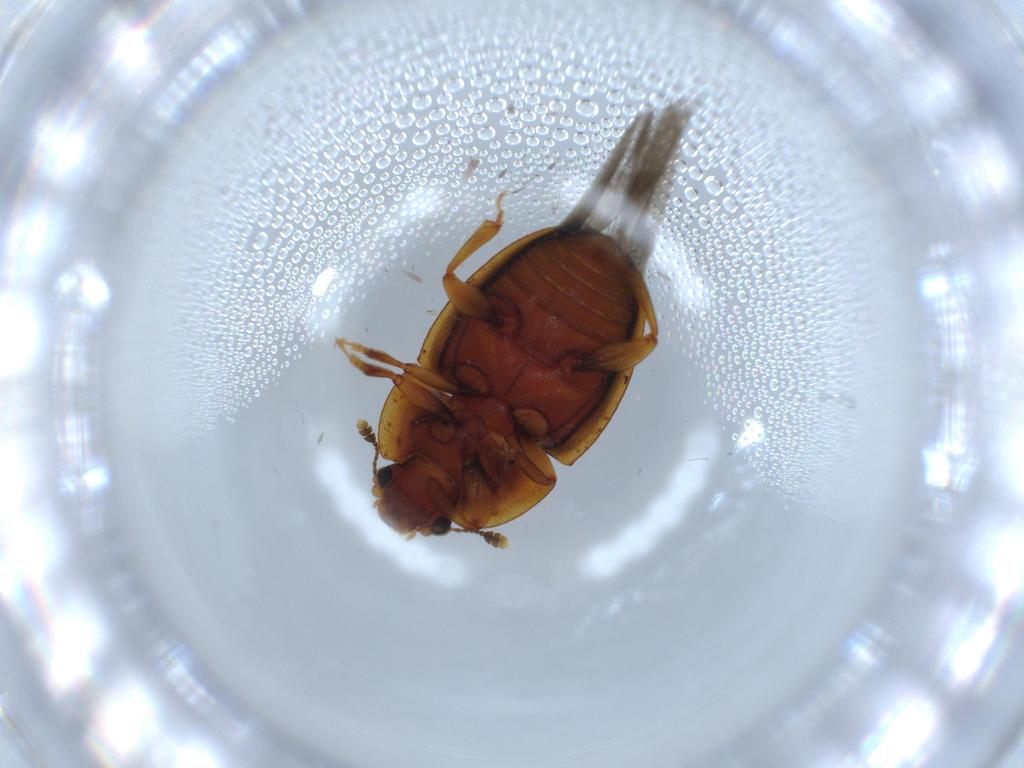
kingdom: Animalia
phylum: Arthropoda
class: Insecta
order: Coleoptera
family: Nitidulidae
